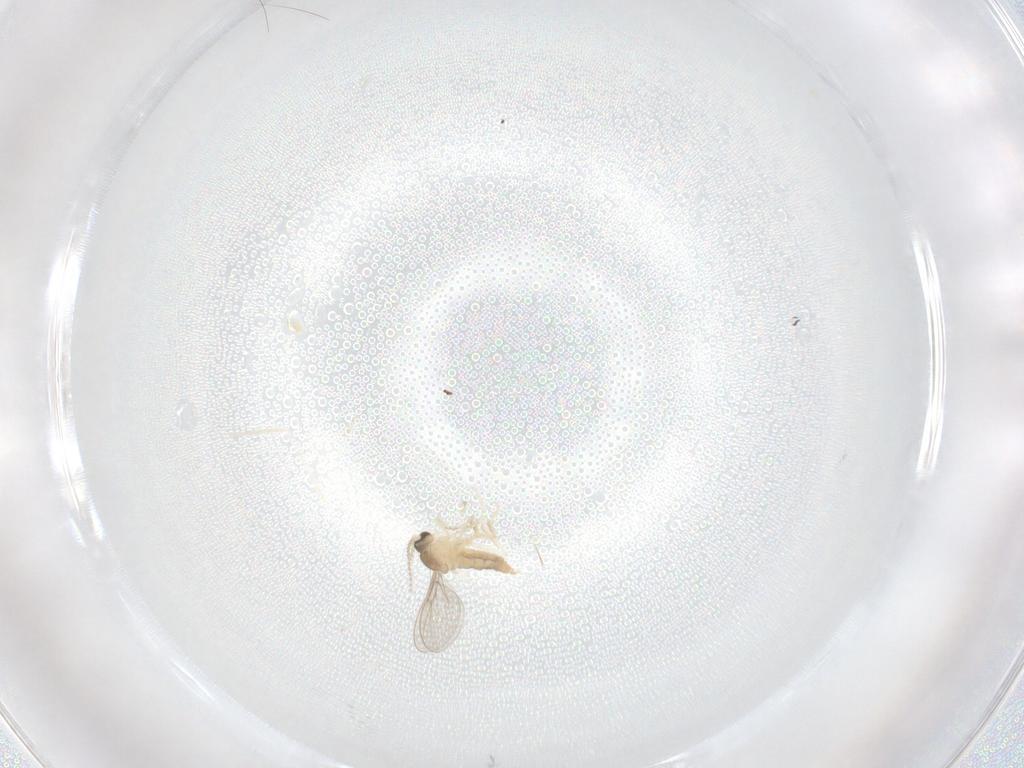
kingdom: Animalia
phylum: Arthropoda
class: Insecta
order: Diptera
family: Cecidomyiidae
